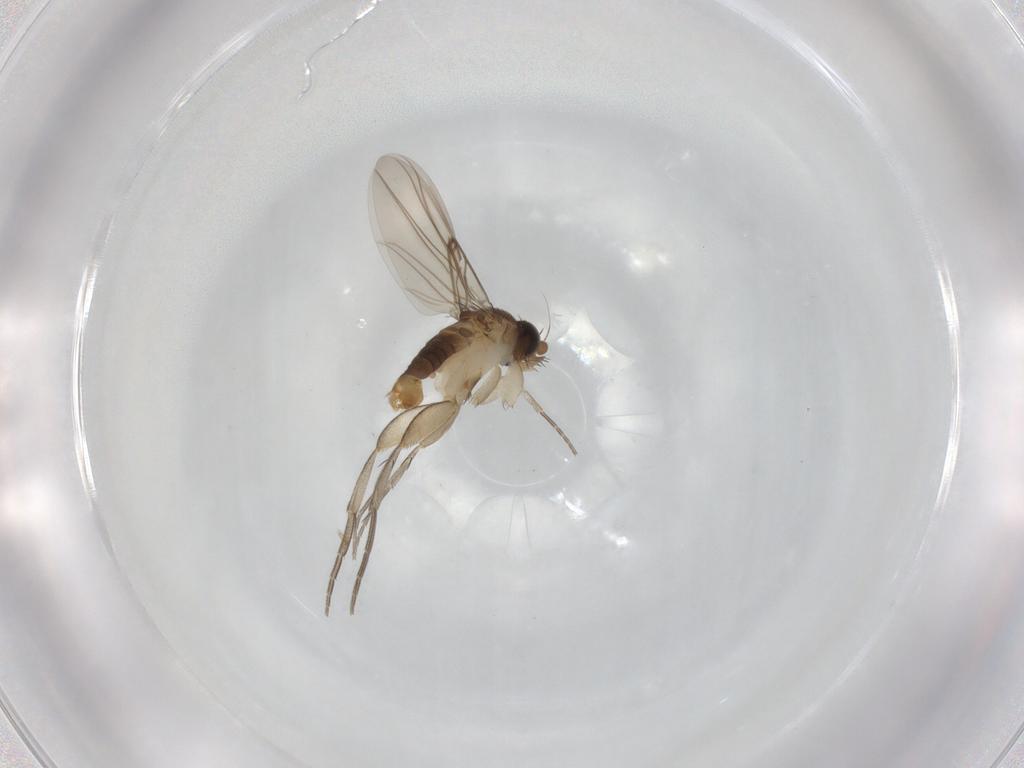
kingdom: Animalia
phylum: Arthropoda
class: Insecta
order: Diptera
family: Phoridae
